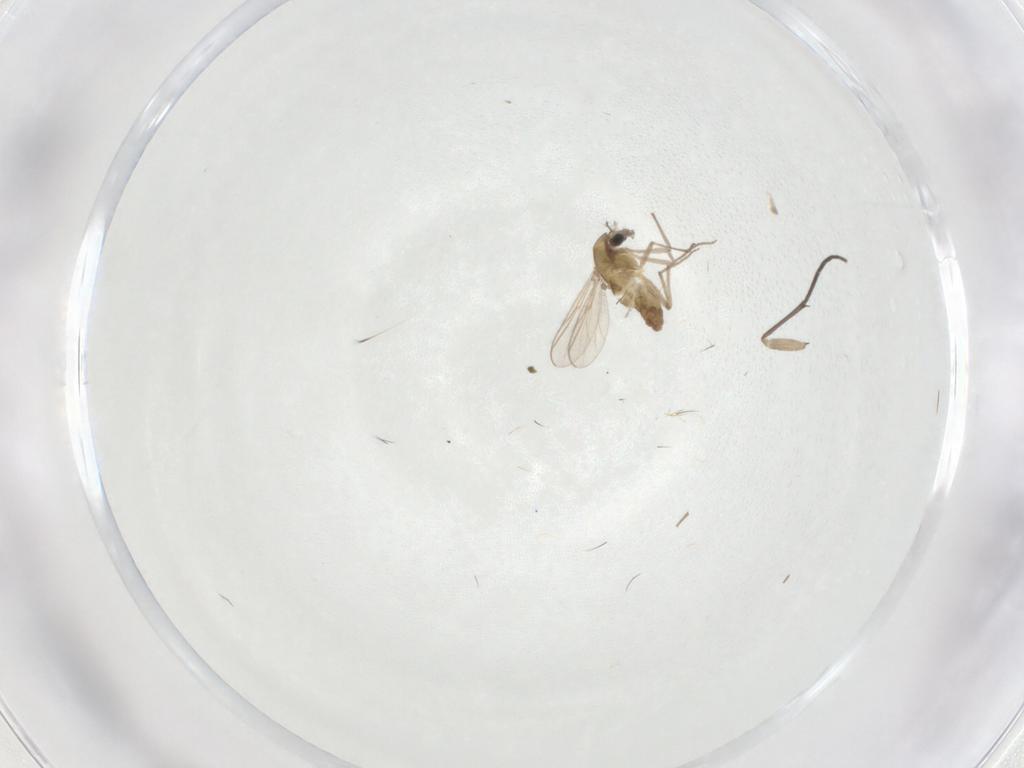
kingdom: Animalia
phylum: Arthropoda
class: Insecta
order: Diptera
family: Chironomidae
